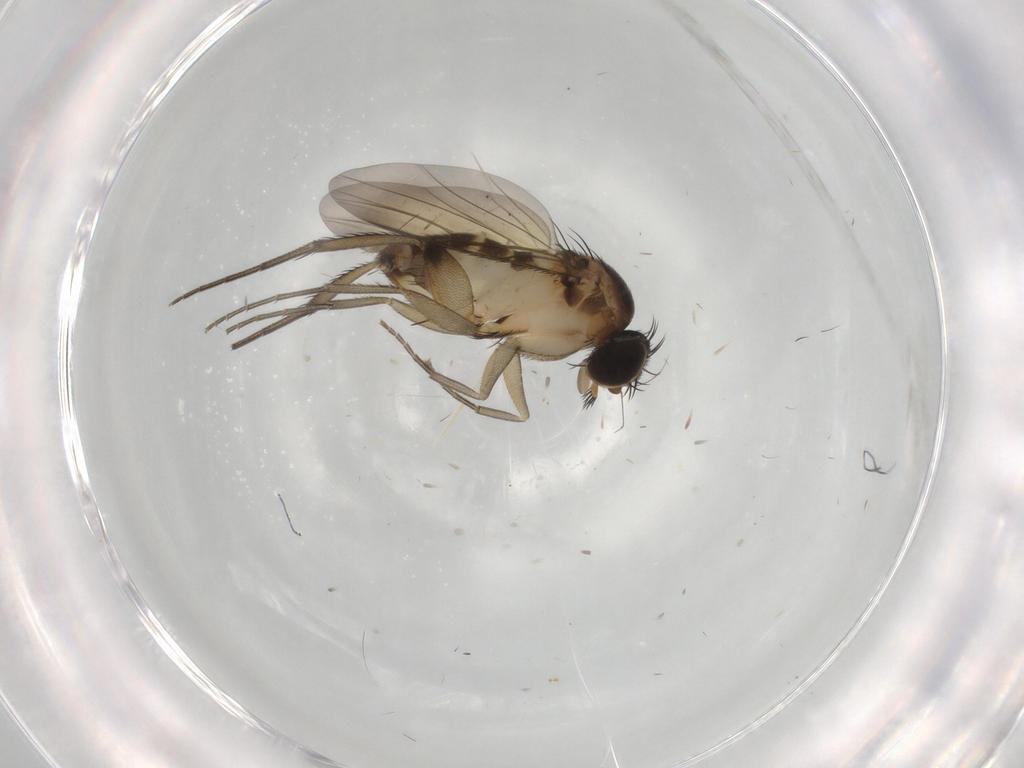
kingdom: Animalia
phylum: Arthropoda
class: Insecta
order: Diptera
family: Phoridae
